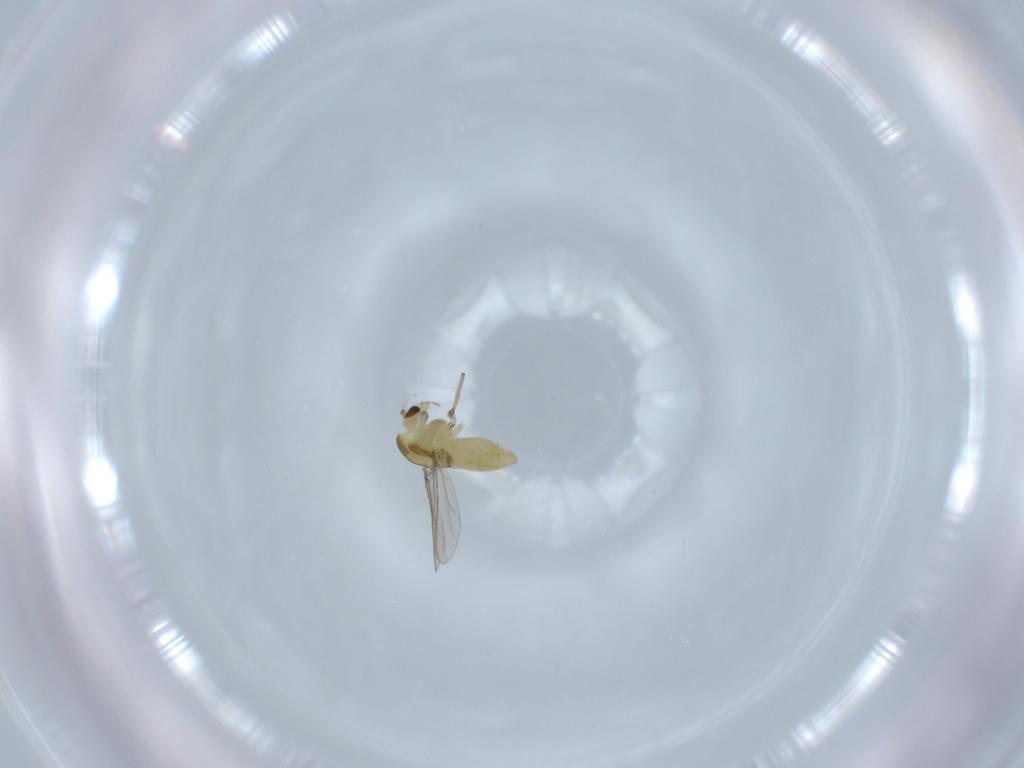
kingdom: Animalia
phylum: Arthropoda
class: Insecta
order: Diptera
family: Chironomidae
